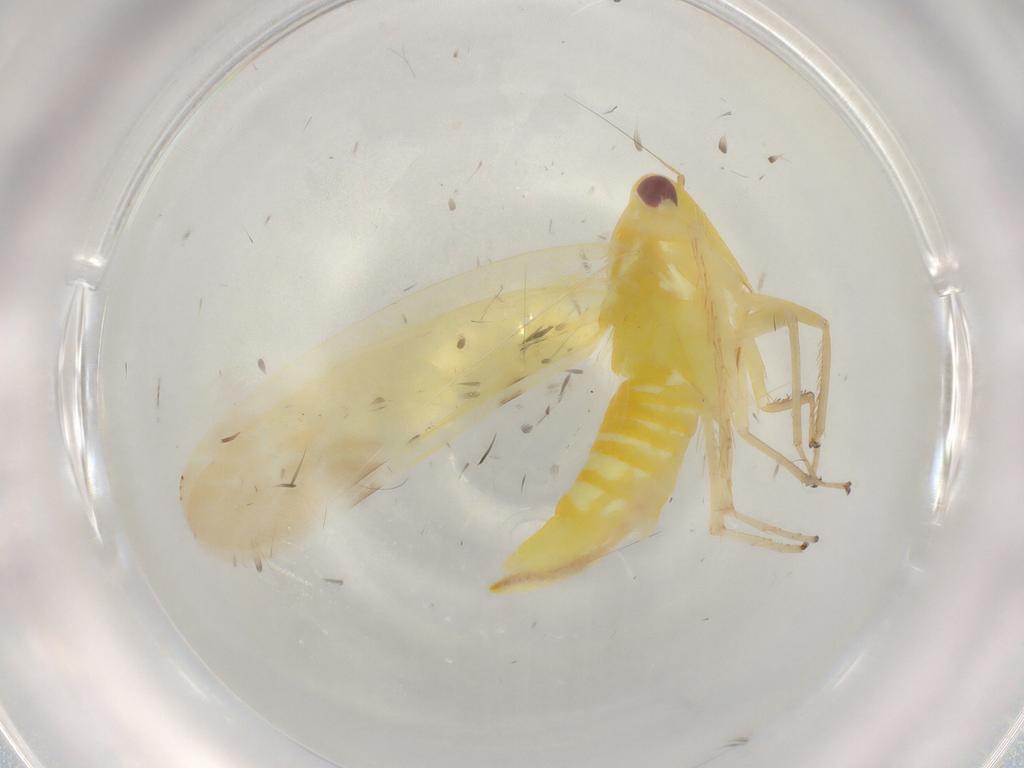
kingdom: Animalia
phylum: Arthropoda
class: Insecta
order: Hemiptera
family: Cicadellidae
